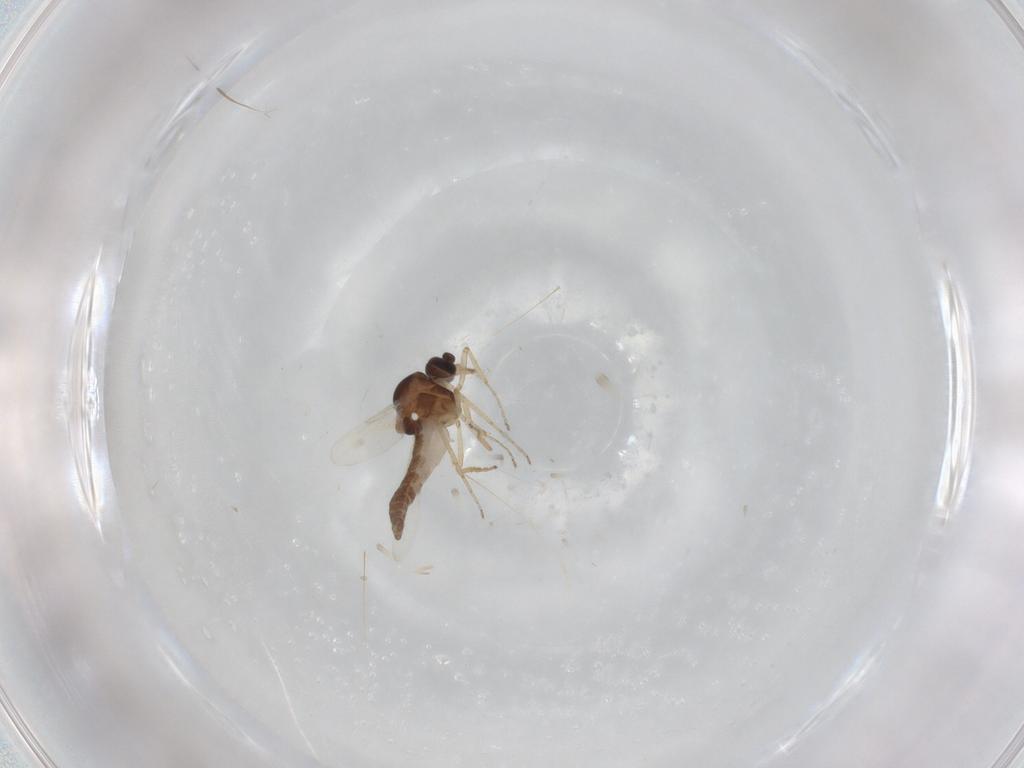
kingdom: Animalia
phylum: Arthropoda
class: Insecta
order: Diptera
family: Ceratopogonidae
